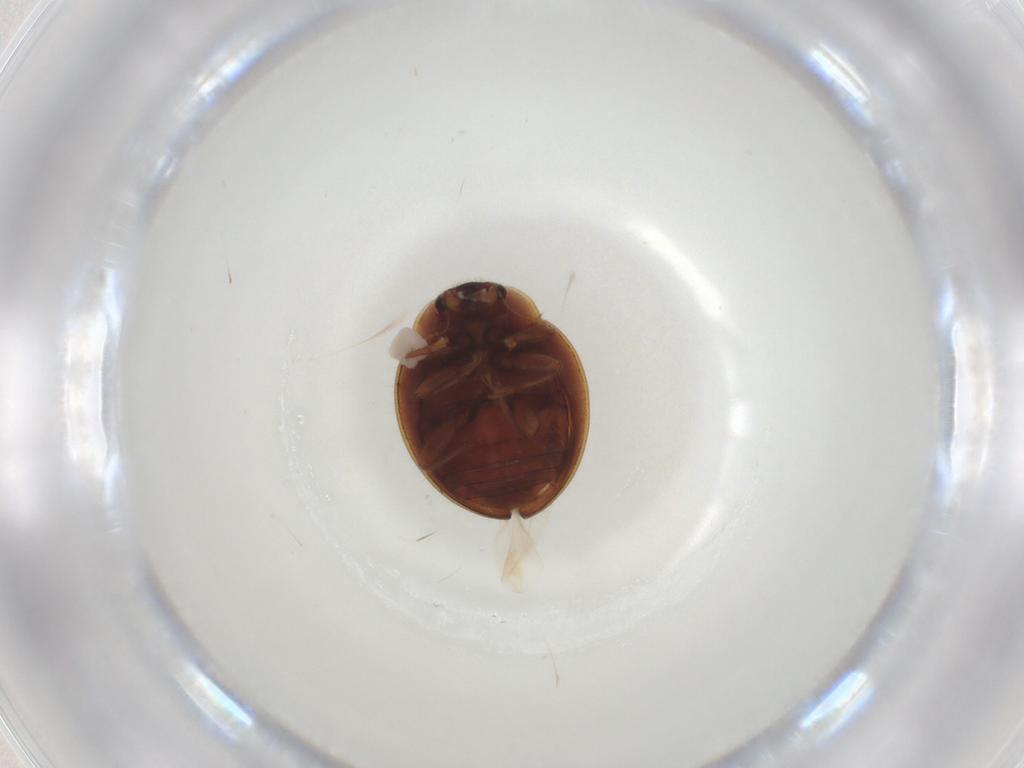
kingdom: Animalia
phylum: Arthropoda
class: Insecta
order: Coleoptera
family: Coccinellidae
